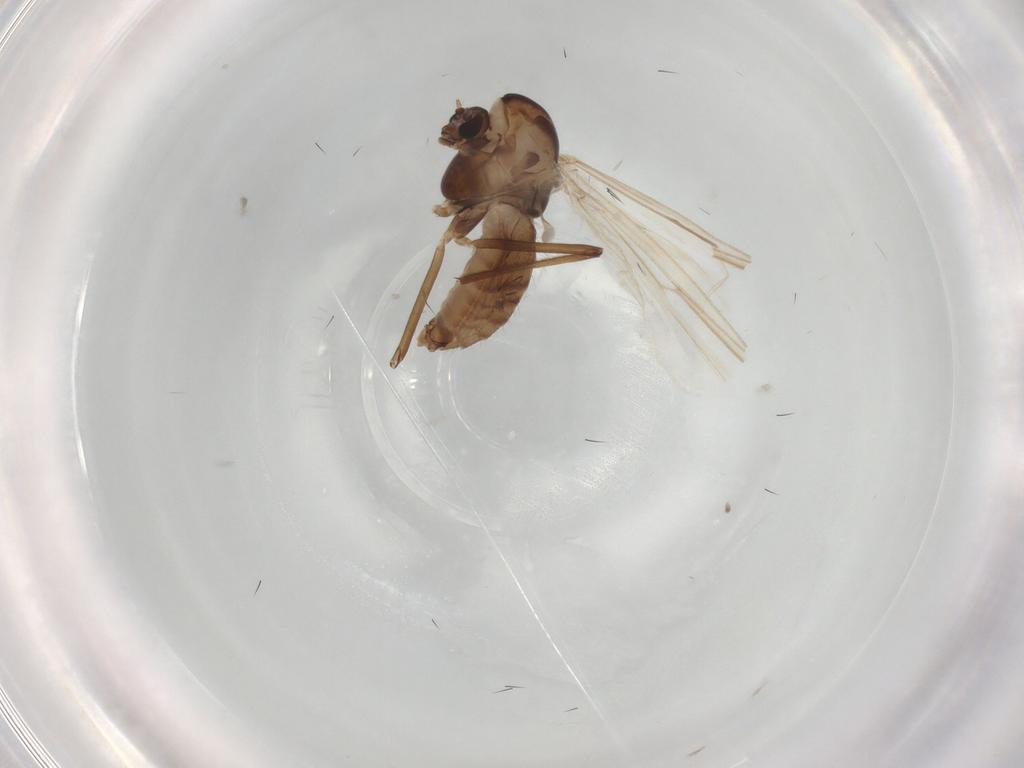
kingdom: Animalia
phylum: Arthropoda
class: Insecta
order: Diptera
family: Chironomidae
